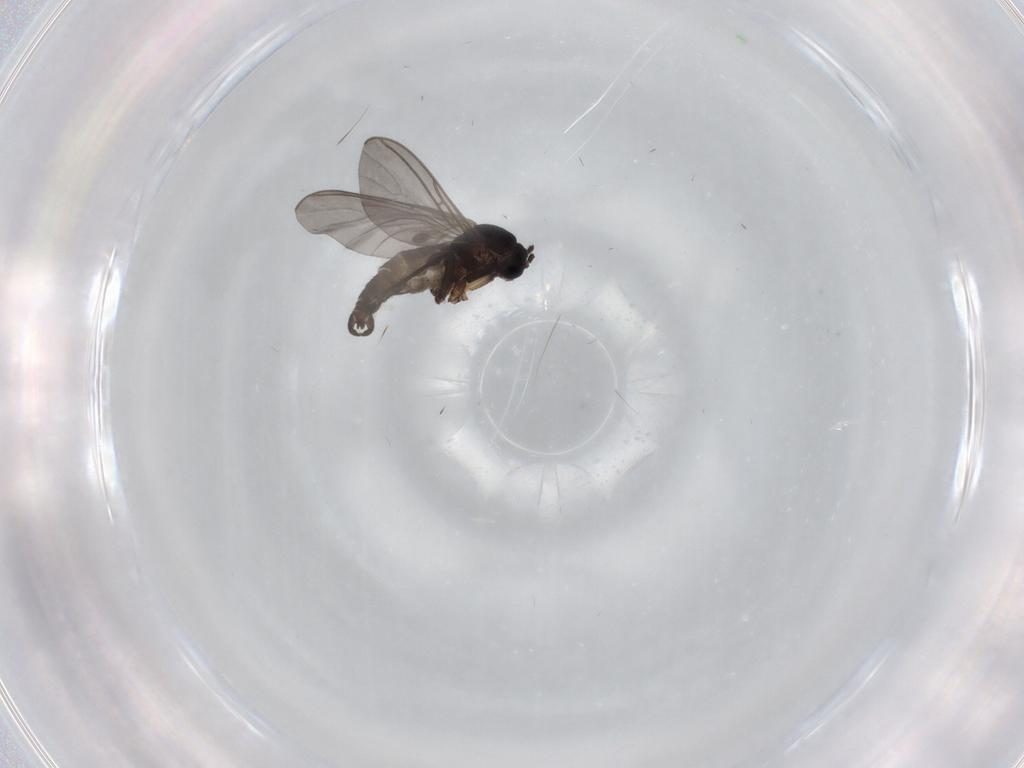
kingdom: Animalia
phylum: Arthropoda
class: Insecta
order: Diptera
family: Sciaridae
